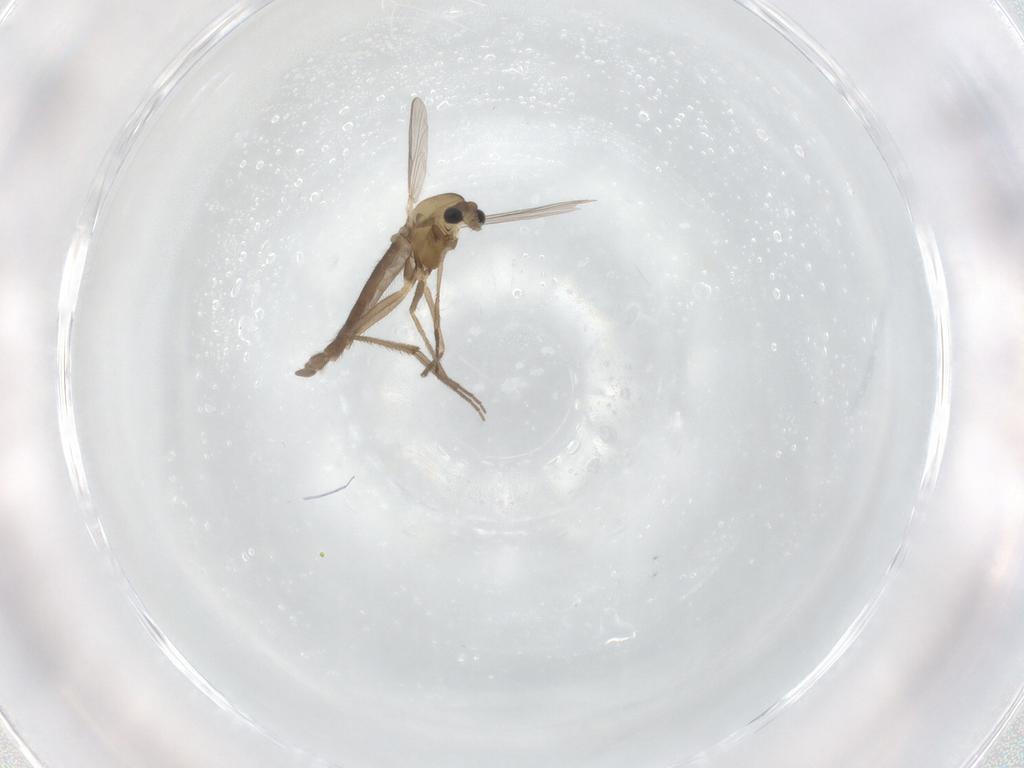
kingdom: Animalia
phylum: Arthropoda
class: Insecta
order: Diptera
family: Chironomidae
